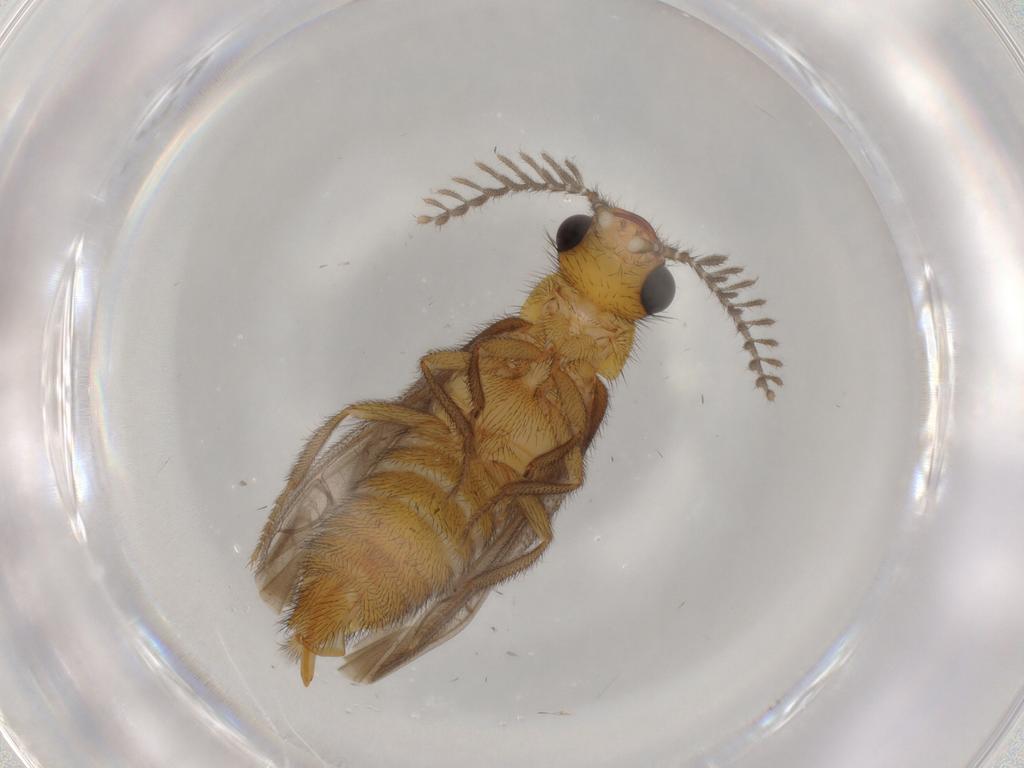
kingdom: Animalia
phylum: Arthropoda
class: Insecta
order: Coleoptera
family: Phengodidae
